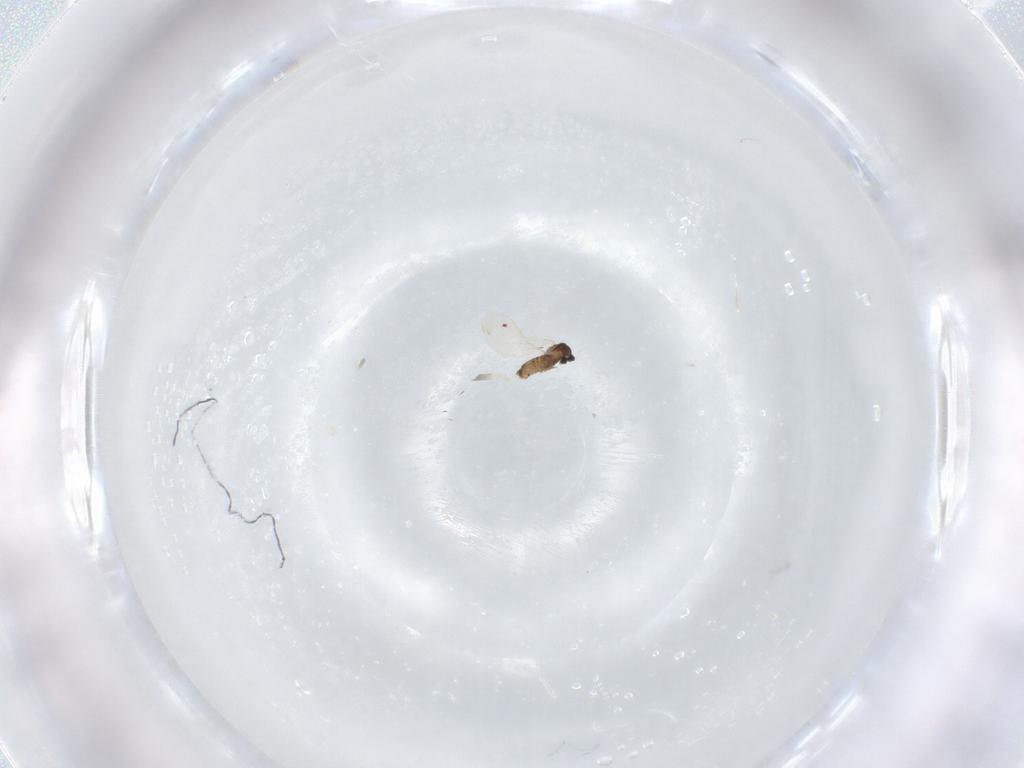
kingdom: Animalia
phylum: Arthropoda
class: Insecta
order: Diptera
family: Cecidomyiidae
